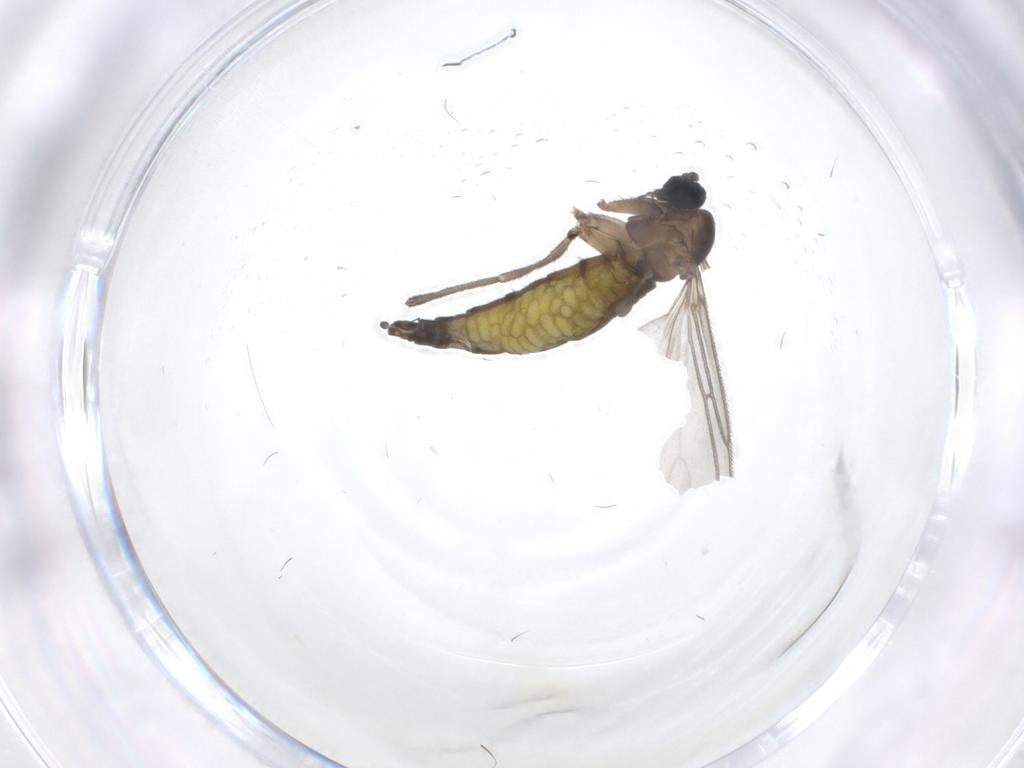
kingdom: Animalia
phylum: Arthropoda
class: Insecta
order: Diptera
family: Sciaridae
